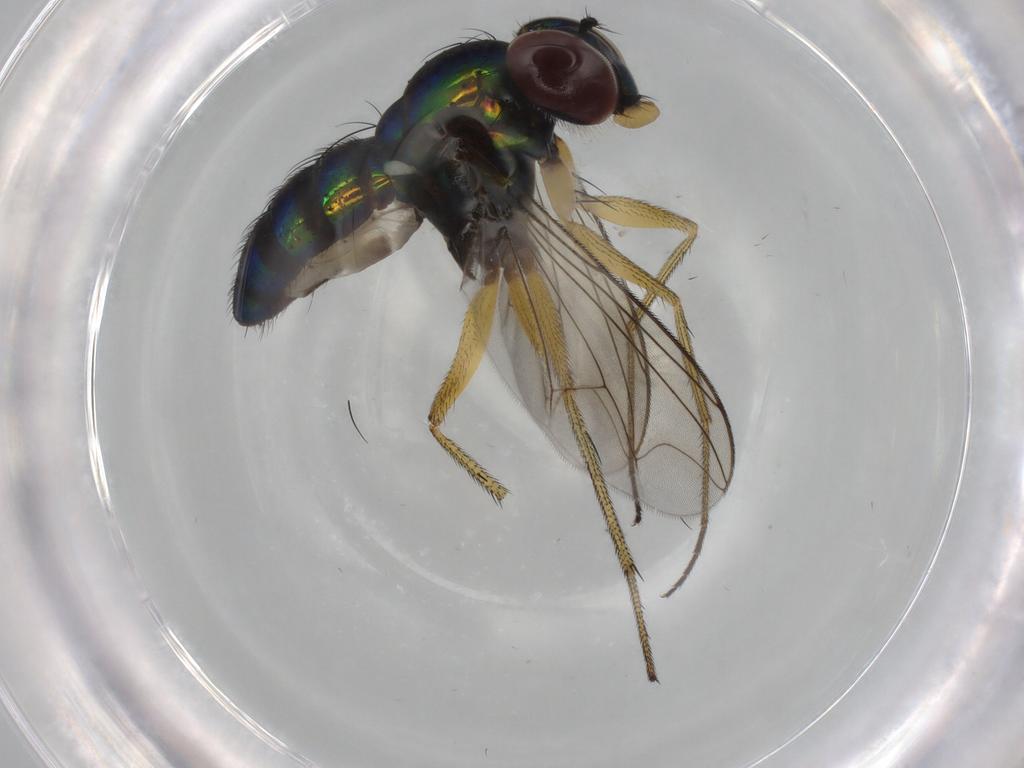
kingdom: Animalia
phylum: Arthropoda
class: Insecta
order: Diptera
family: Dolichopodidae
